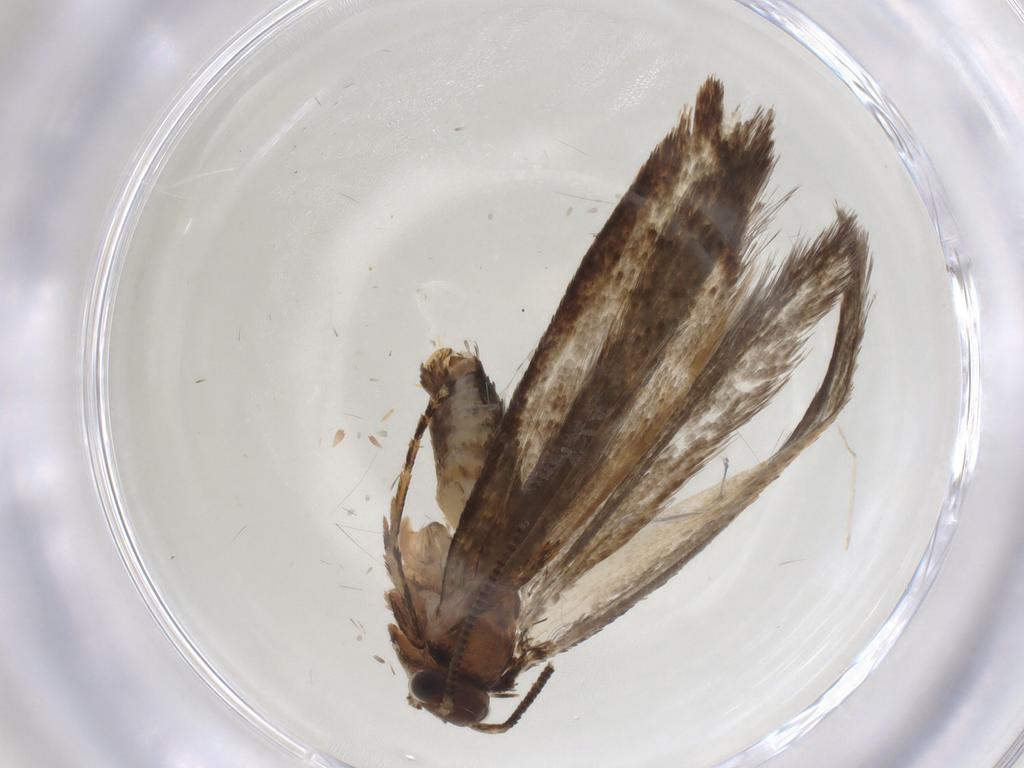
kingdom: Animalia
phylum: Arthropoda
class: Insecta
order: Lepidoptera
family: Crambidae
